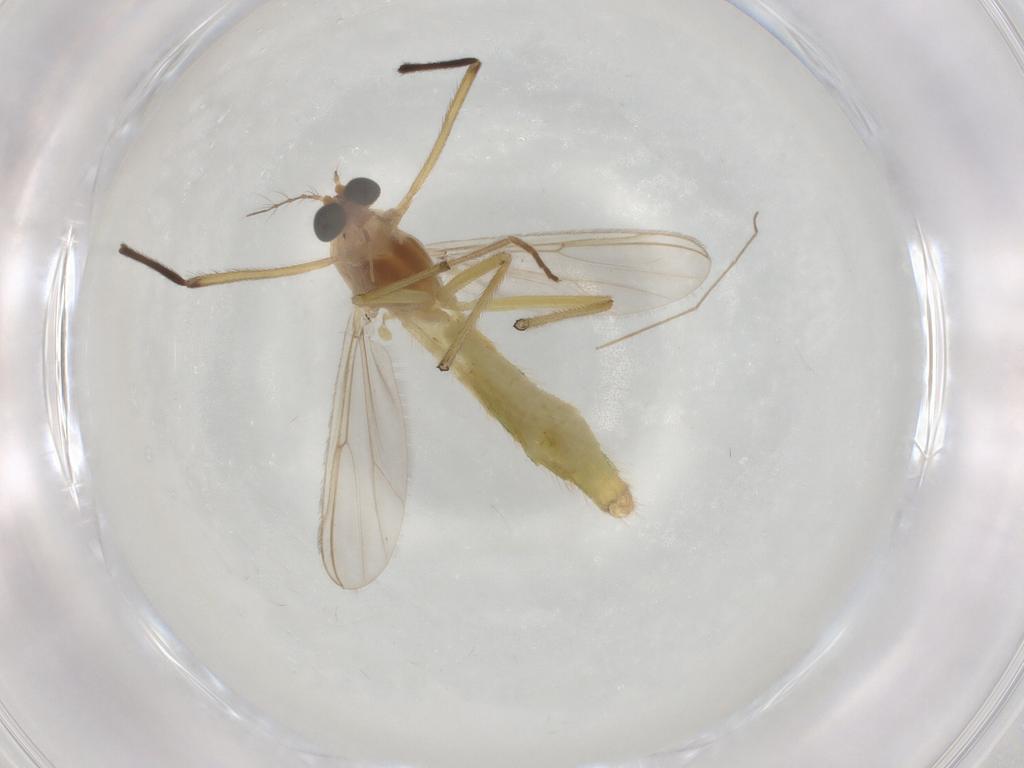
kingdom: Animalia
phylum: Arthropoda
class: Insecta
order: Diptera
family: Chironomidae
